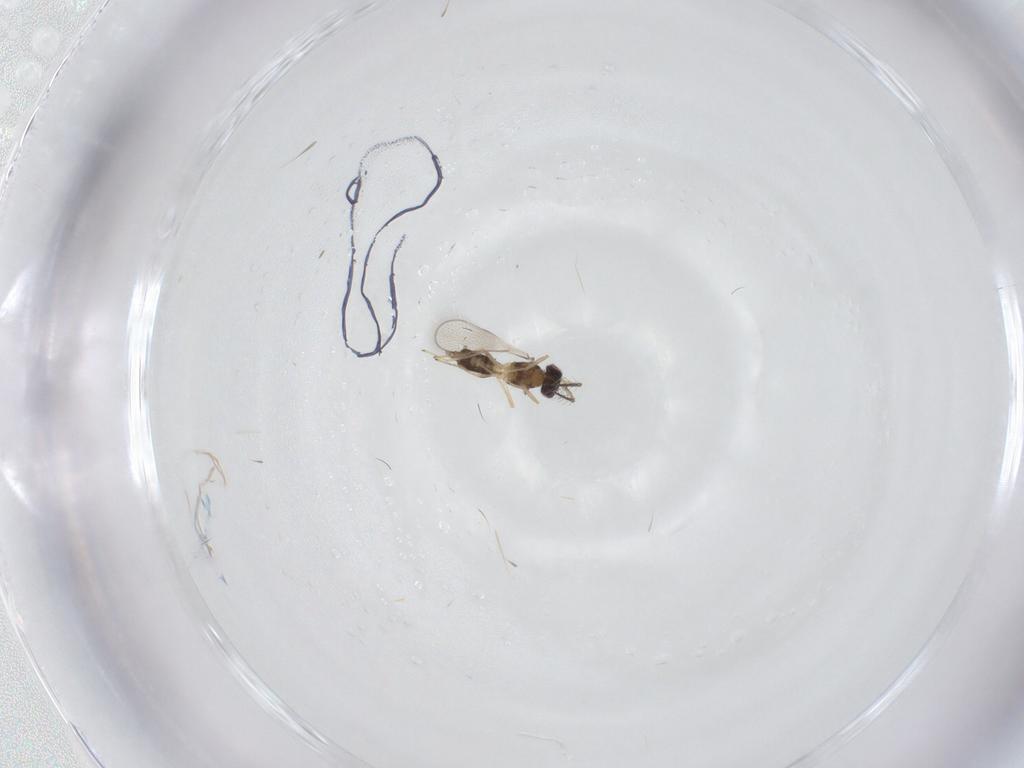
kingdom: Animalia
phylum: Arthropoda
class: Insecta
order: Hymenoptera
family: Eulophidae
